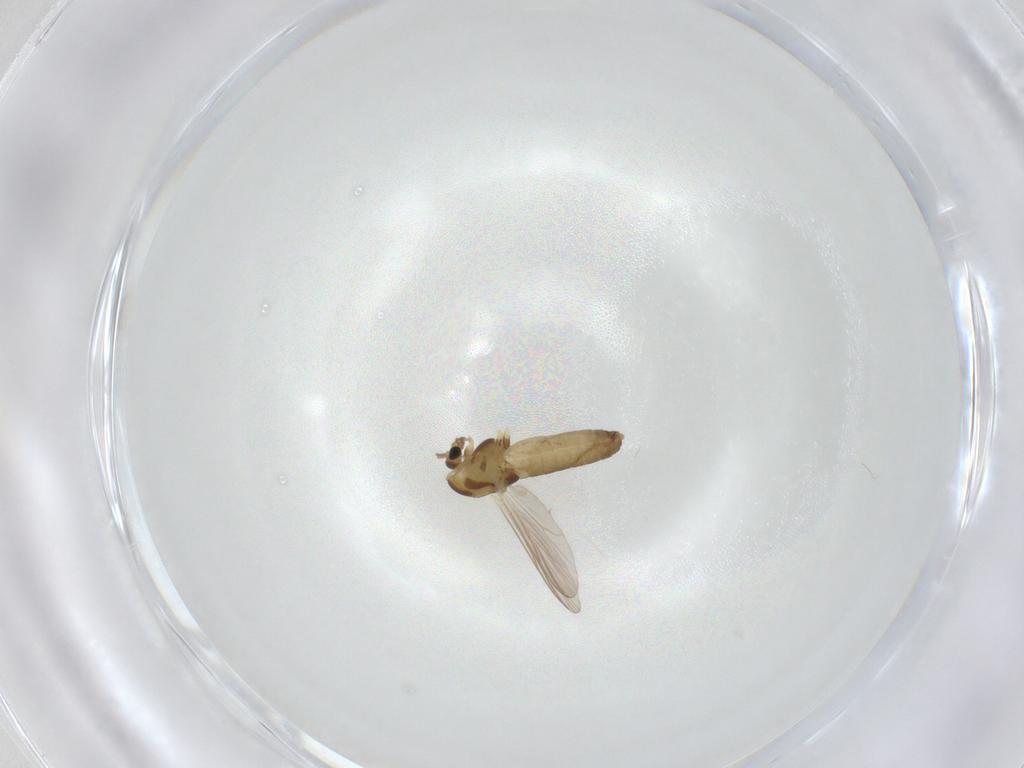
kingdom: Animalia
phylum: Arthropoda
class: Insecta
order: Diptera
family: Chironomidae
